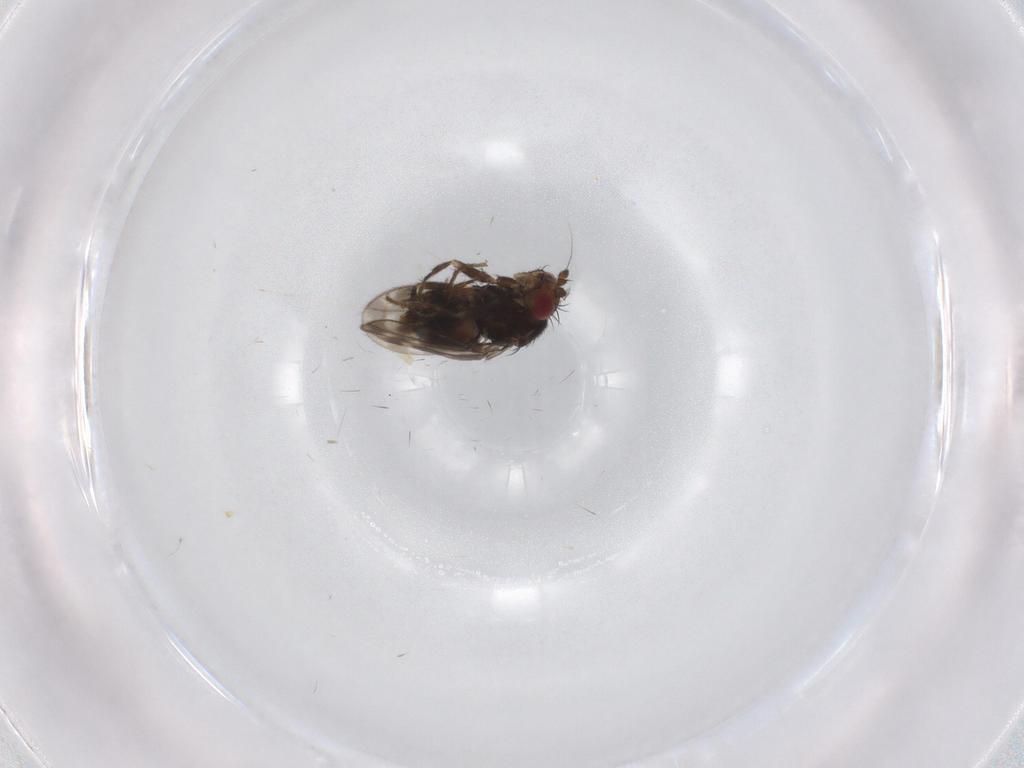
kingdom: Animalia
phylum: Arthropoda
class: Insecta
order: Diptera
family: Sphaeroceridae
